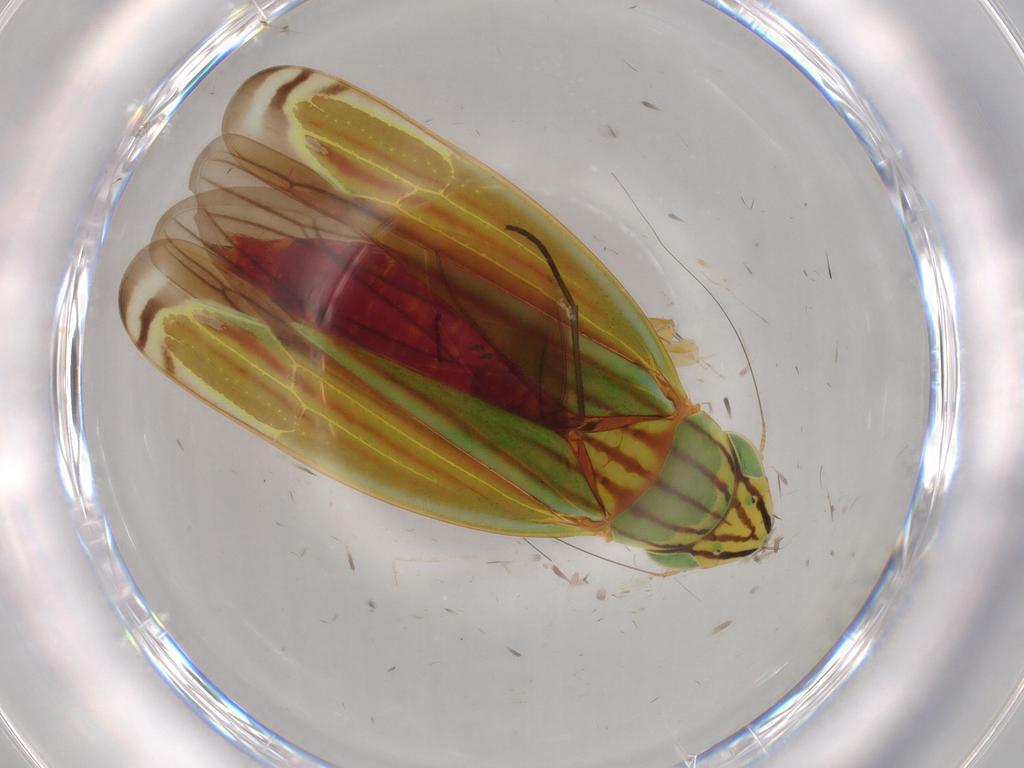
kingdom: Animalia
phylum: Arthropoda
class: Insecta
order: Hemiptera
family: Cicadellidae
